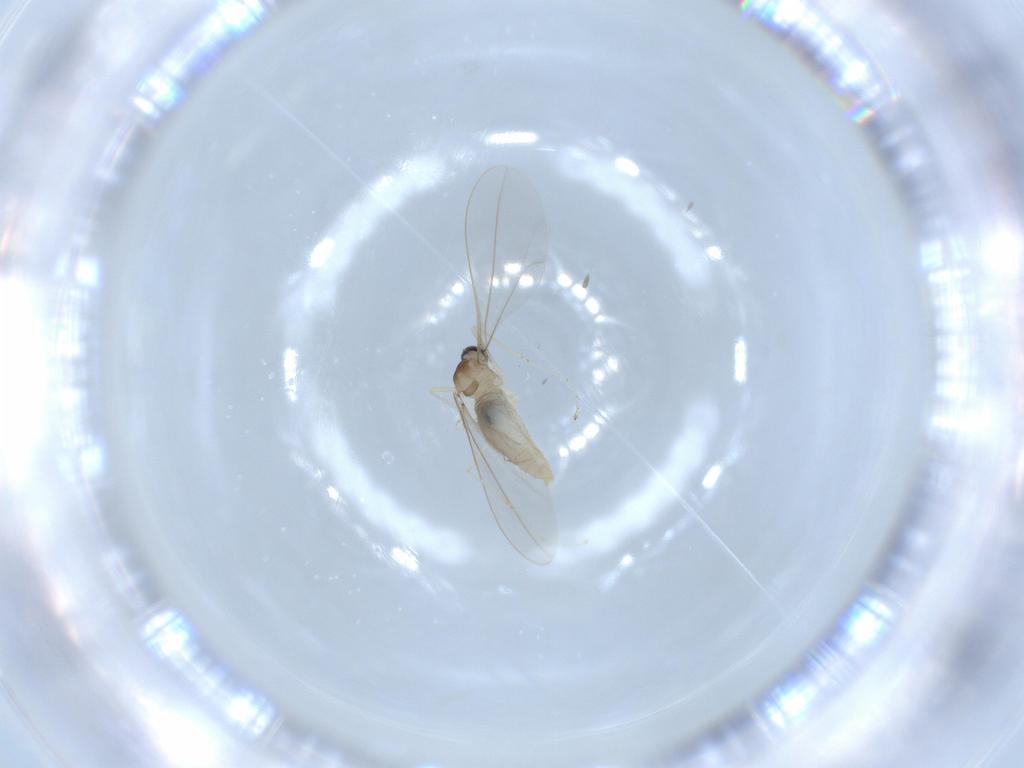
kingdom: Animalia
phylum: Arthropoda
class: Insecta
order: Diptera
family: Cecidomyiidae
